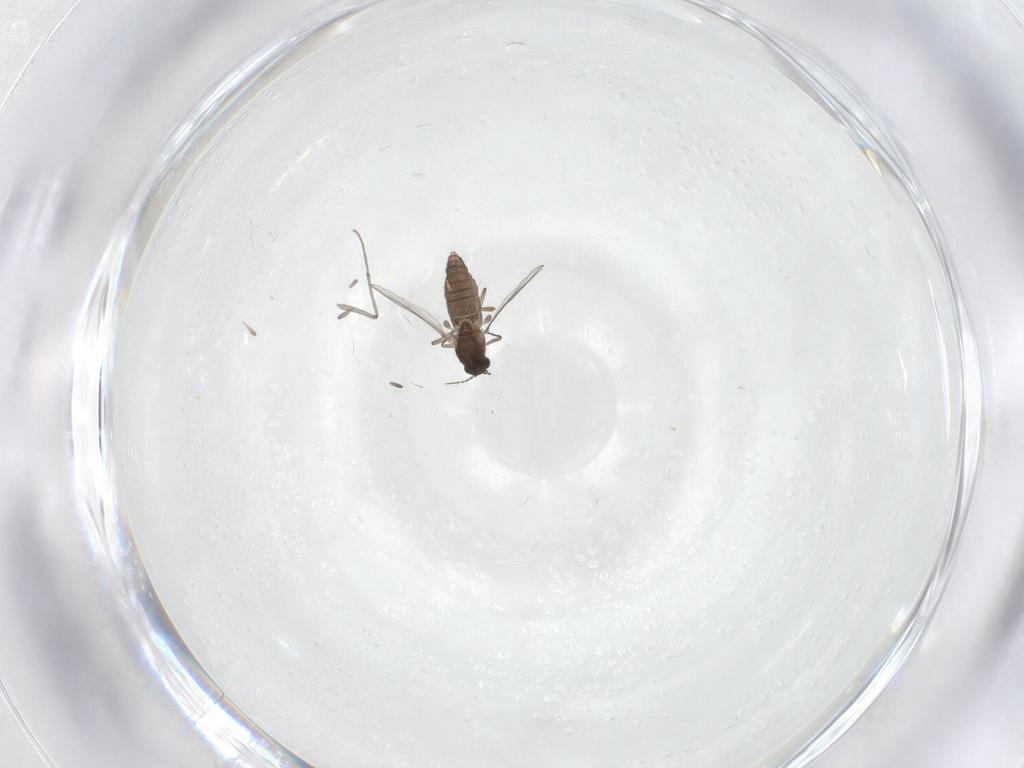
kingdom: Animalia
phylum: Arthropoda
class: Insecta
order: Diptera
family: Chironomidae
